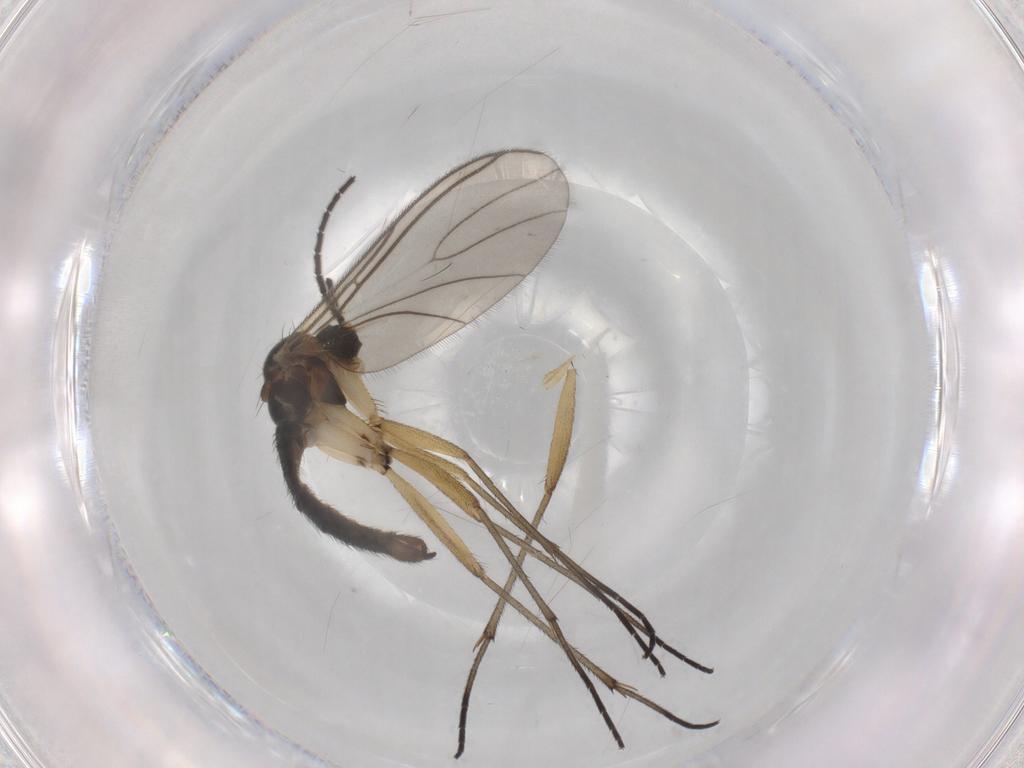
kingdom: Animalia
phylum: Arthropoda
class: Insecta
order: Diptera
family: Sciaridae
